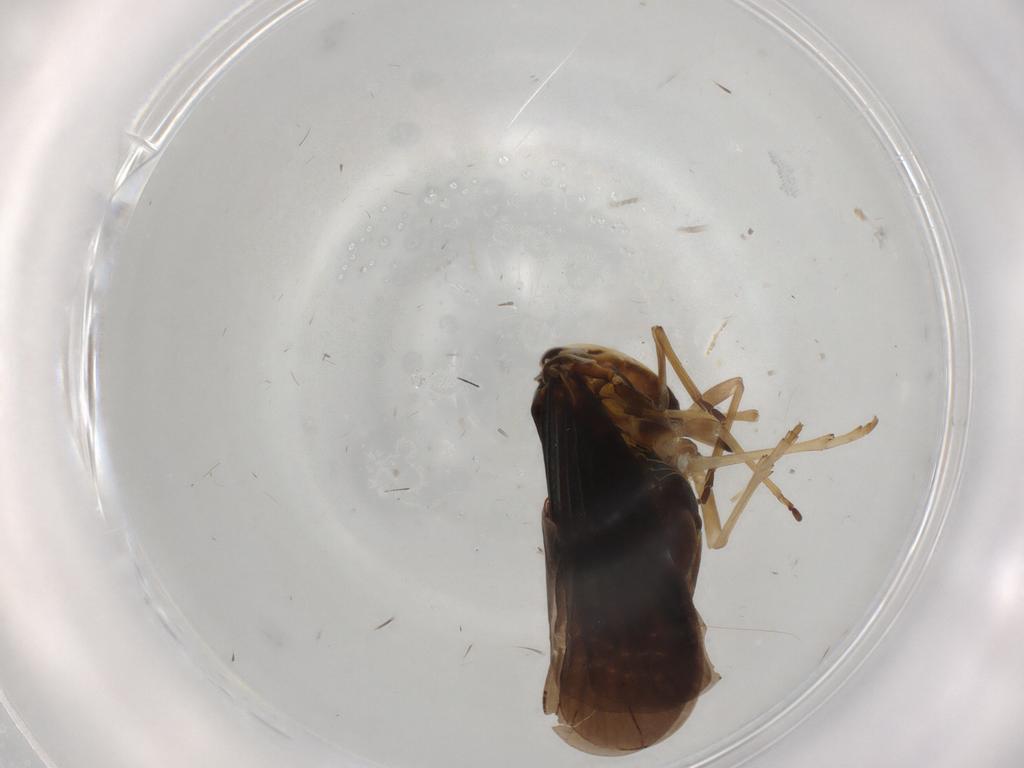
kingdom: Animalia
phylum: Arthropoda
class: Insecta
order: Hemiptera
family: Derbidae
